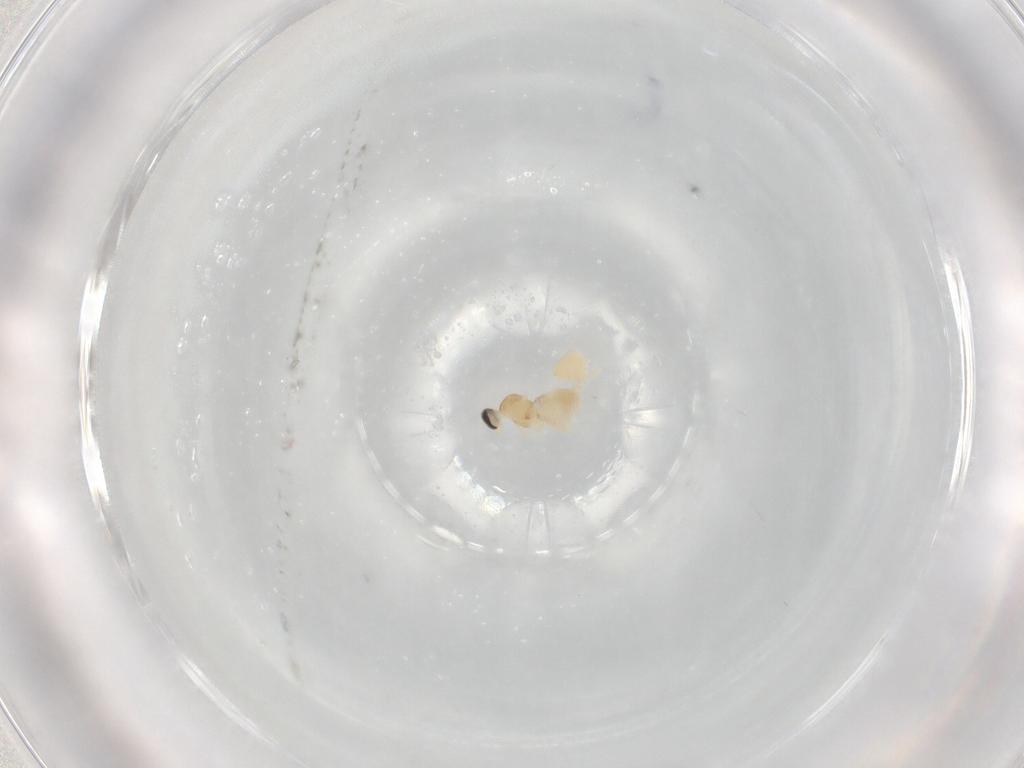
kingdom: Animalia
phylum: Arthropoda
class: Insecta
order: Diptera
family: Cecidomyiidae
